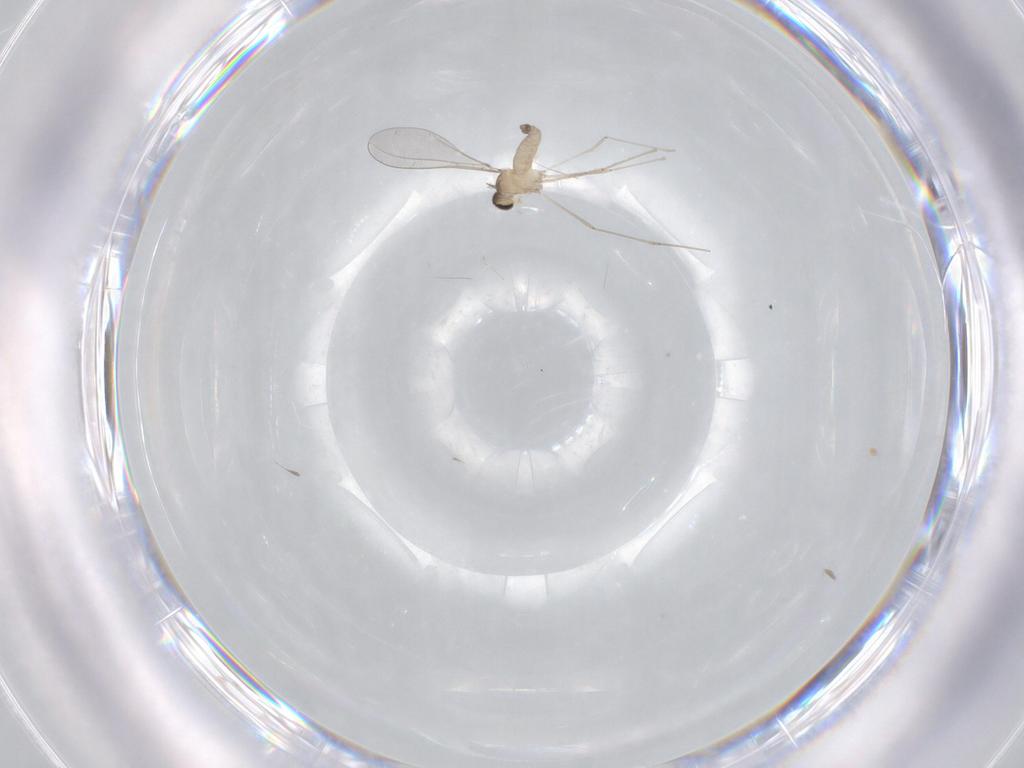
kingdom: Animalia
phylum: Arthropoda
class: Insecta
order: Diptera
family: Cecidomyiidae
